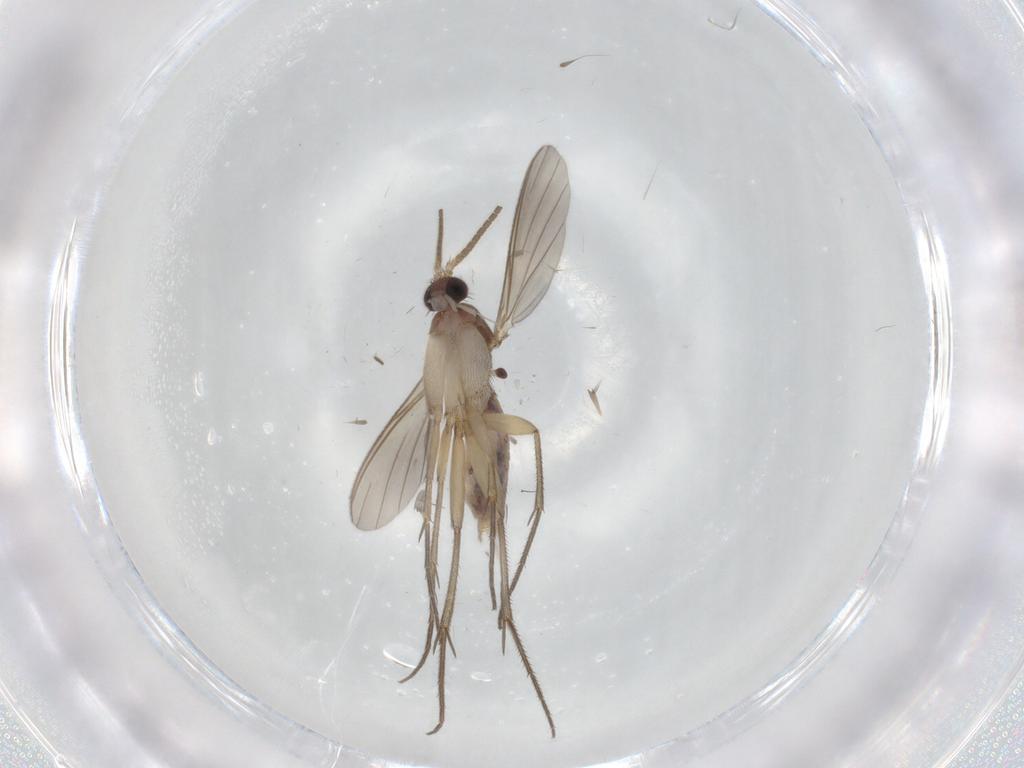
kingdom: Animalia
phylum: Arthropoda
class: Insecta
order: Diptera
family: Mycetophilidae
